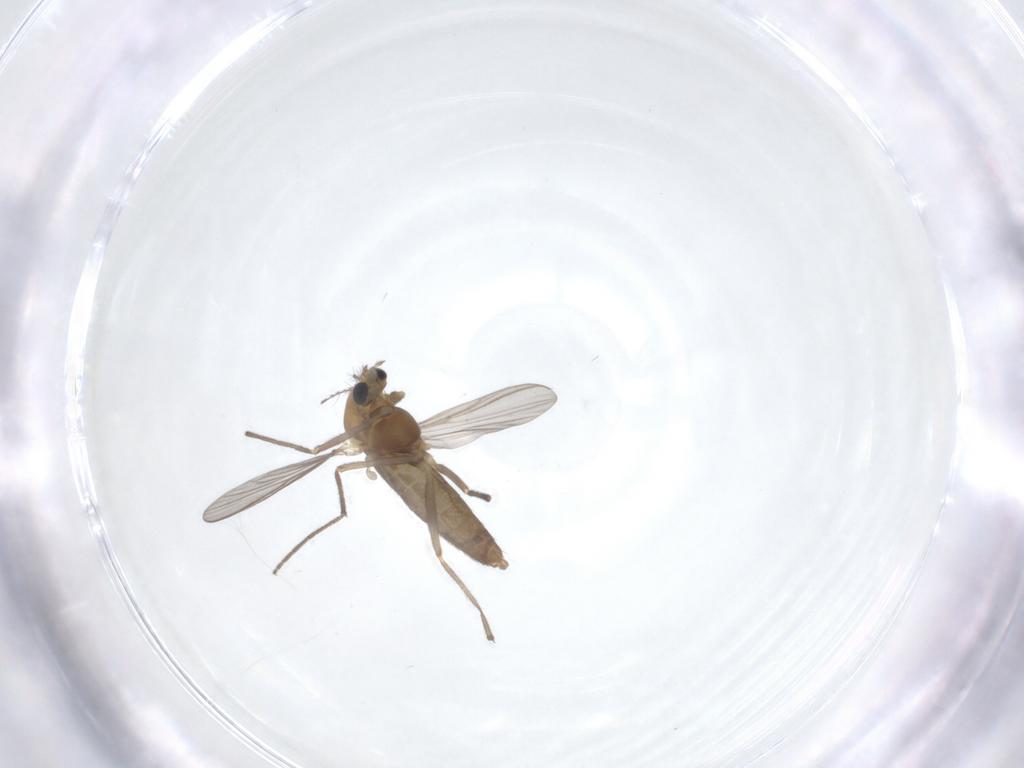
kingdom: Animalia
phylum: Arthropoda
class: Insecta
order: Diptera
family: Chironomidae
